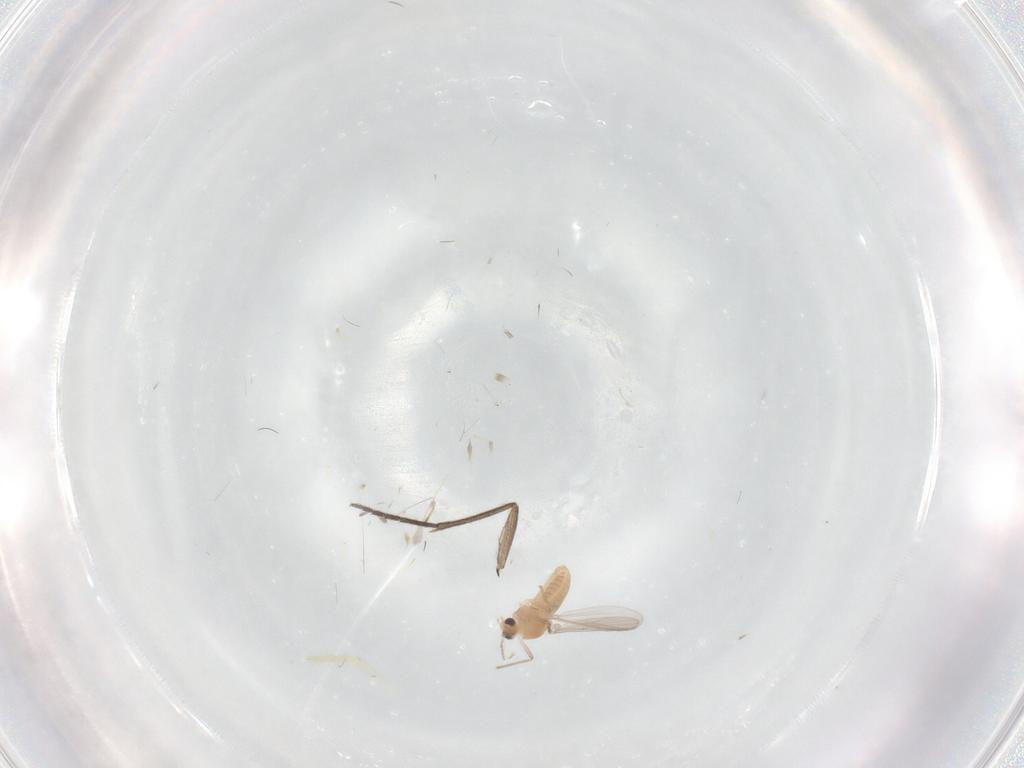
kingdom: Animalia
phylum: Arthropoda
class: Insecta
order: Diptera
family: Chironomidae
